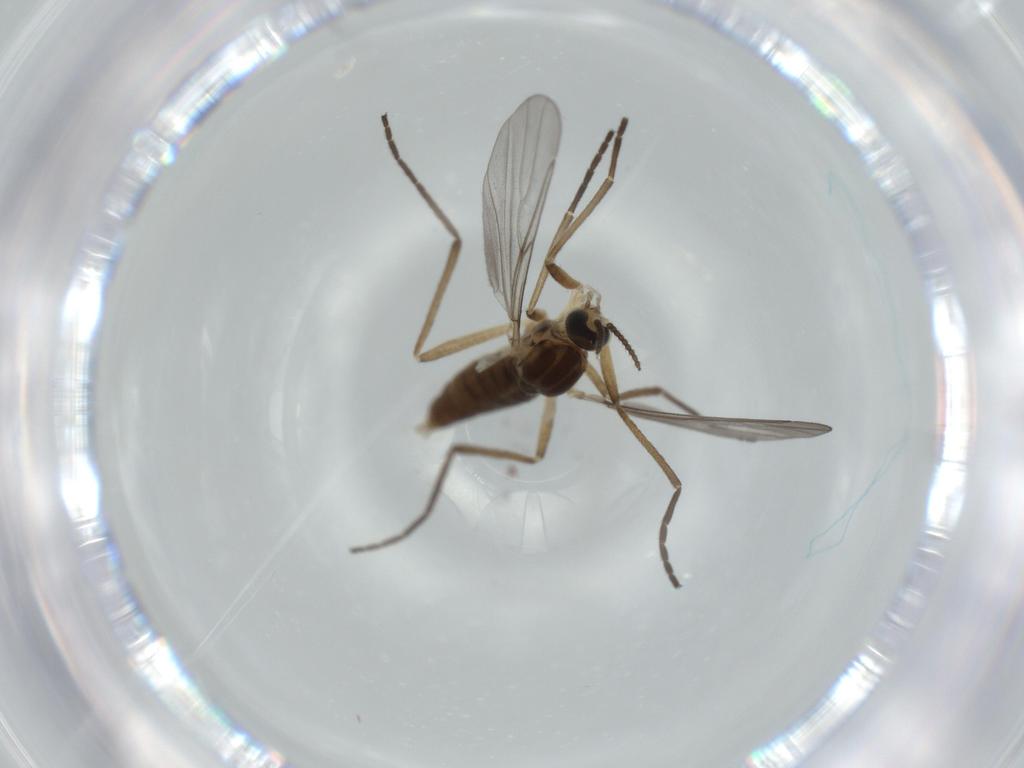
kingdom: Animalia
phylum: Arthropoda
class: Insecta
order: Diptera
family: Cecidomyiidae
